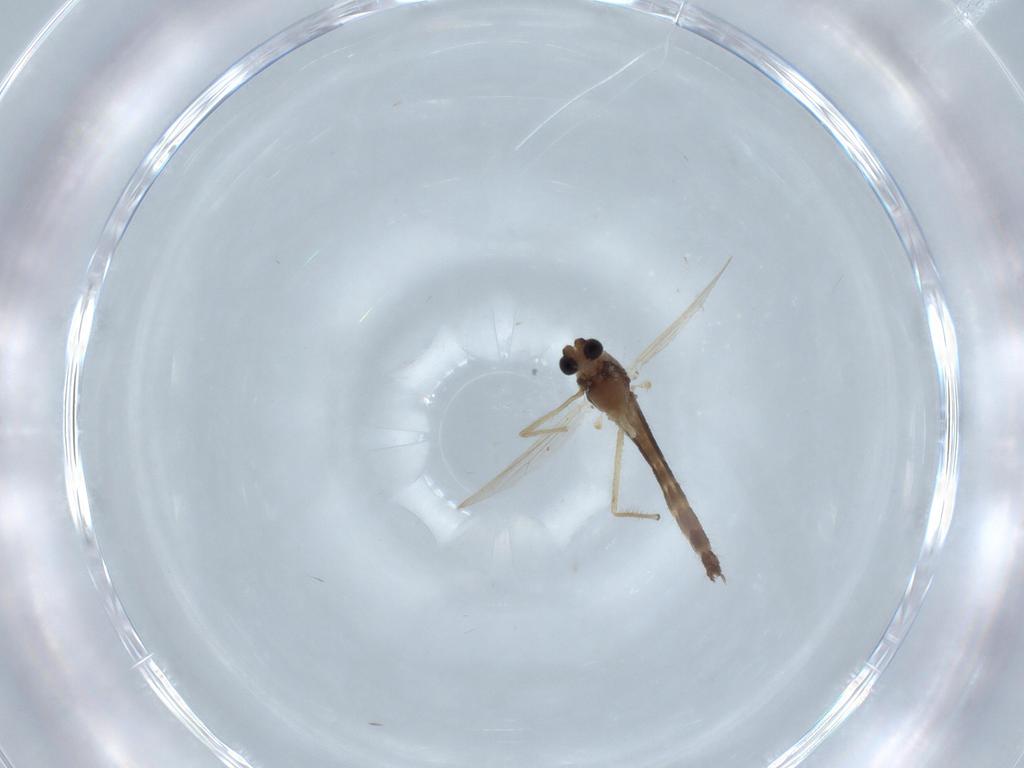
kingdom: Animalia
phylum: Arthropoda
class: Insecta
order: Diptera
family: Chironomidae
